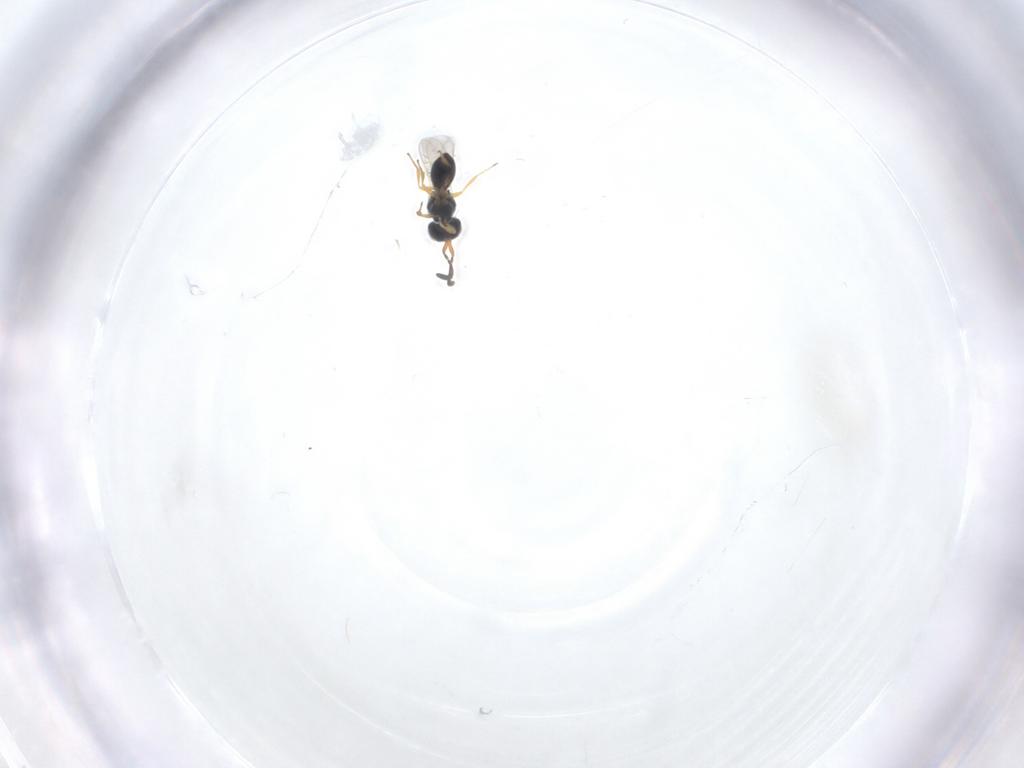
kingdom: Animalia
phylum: Arthropoda
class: Insecta
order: Hymenoptera
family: Scelionidae
